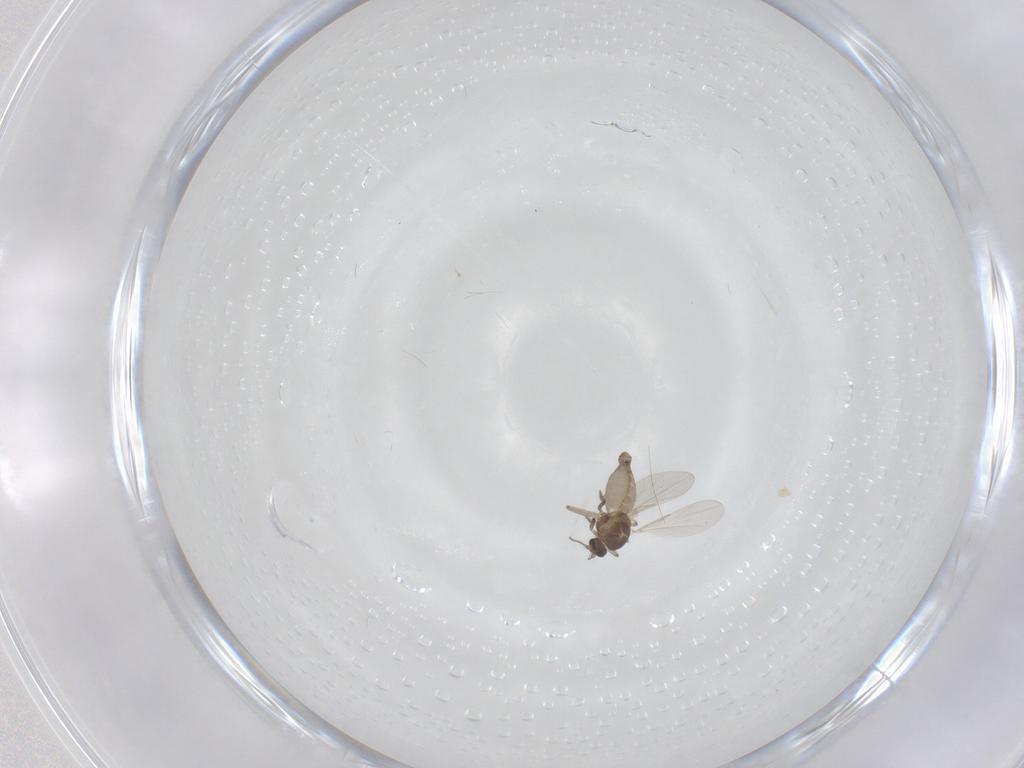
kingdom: Animalia
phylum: Arthropoda
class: Insecta
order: Diptera
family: Ceratopogonidae
